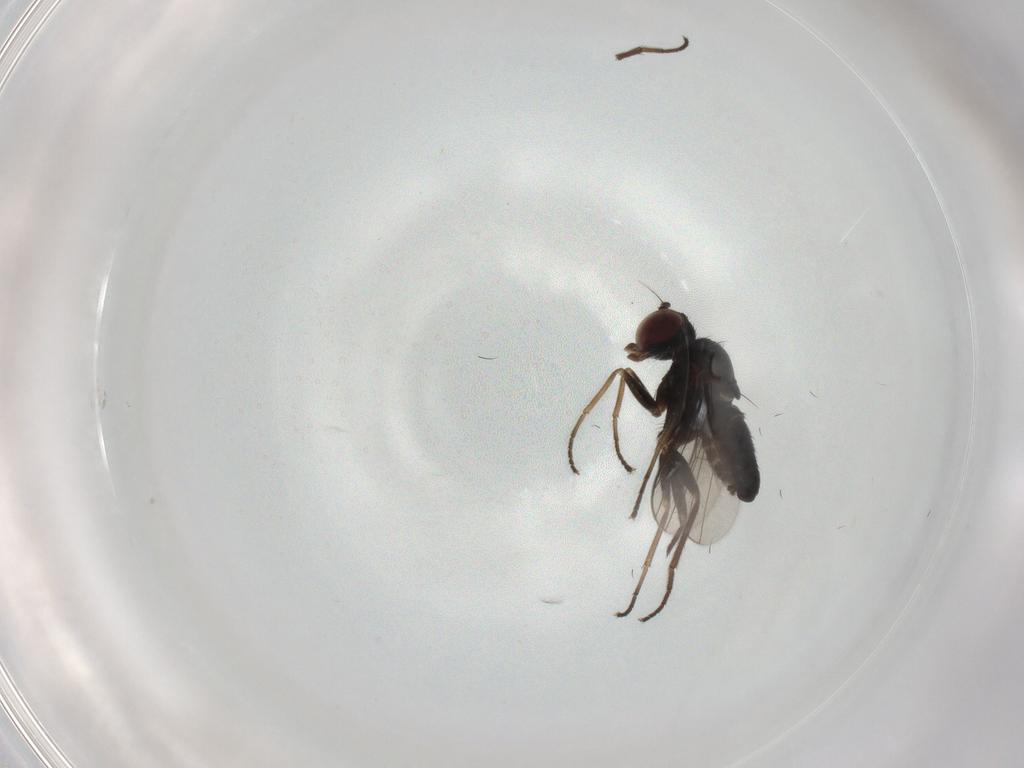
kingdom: Animalia
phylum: Arthropoda
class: Insecta
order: Diptera
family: Dolichopodidae
